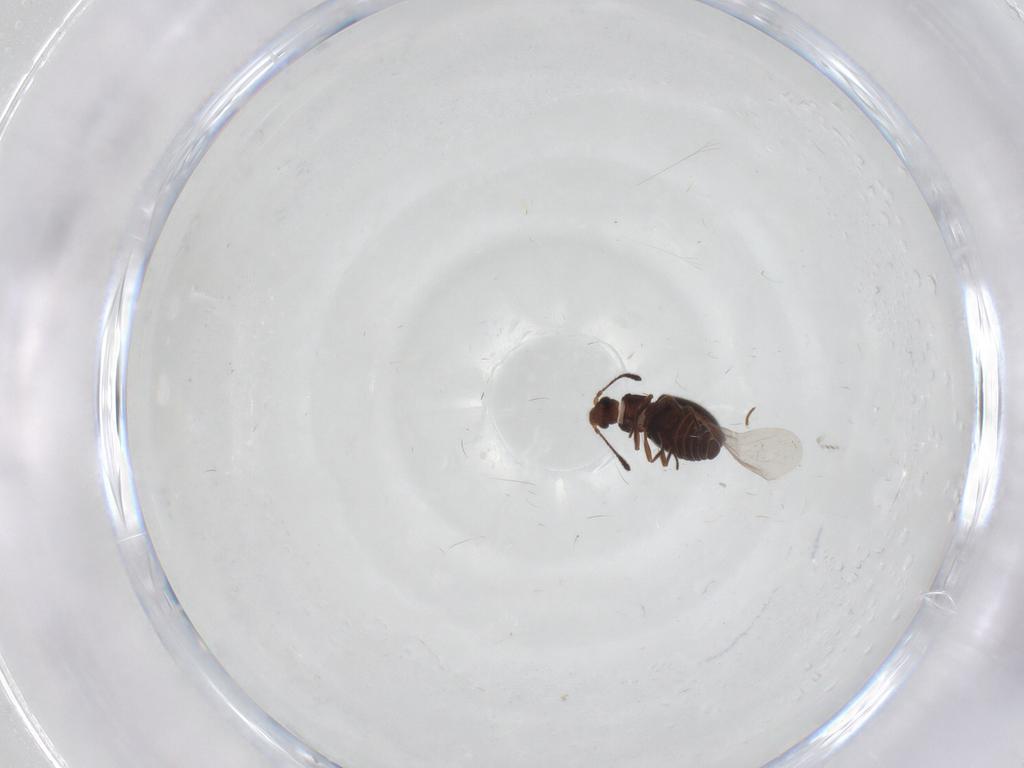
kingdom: Animalia
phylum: Arthropoda
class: Insecta
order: Coleoptera
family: Cryptophagidae
